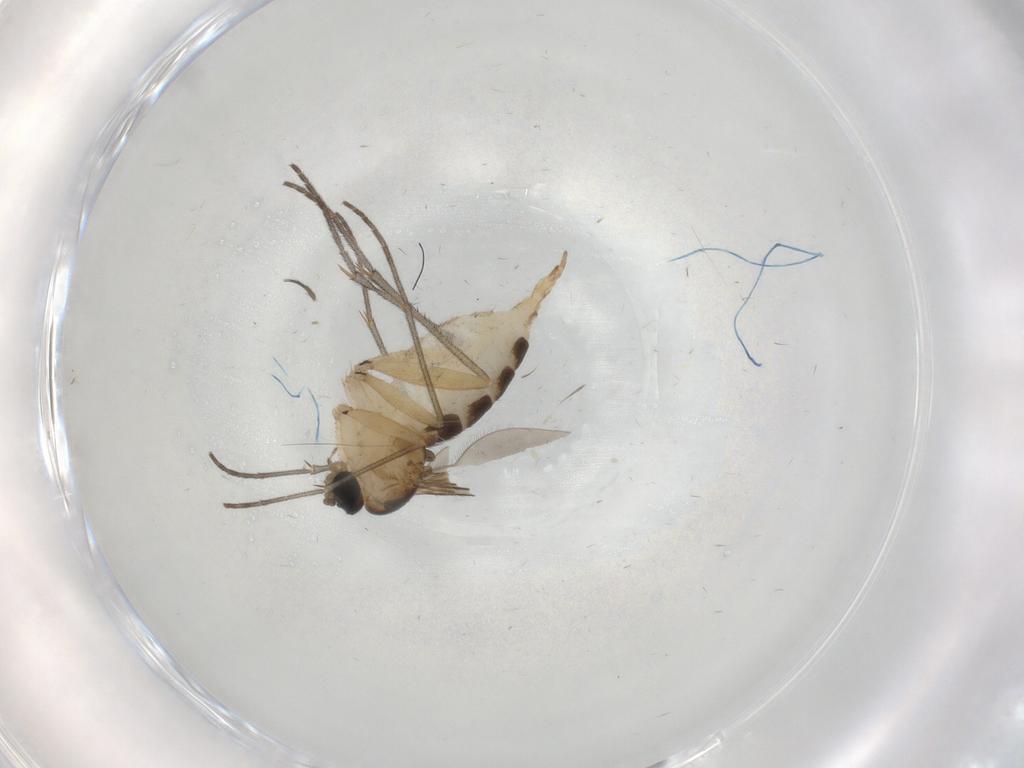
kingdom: Animalia
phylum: Arthropoda
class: Insecta
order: Diptera
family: Sciaridae
